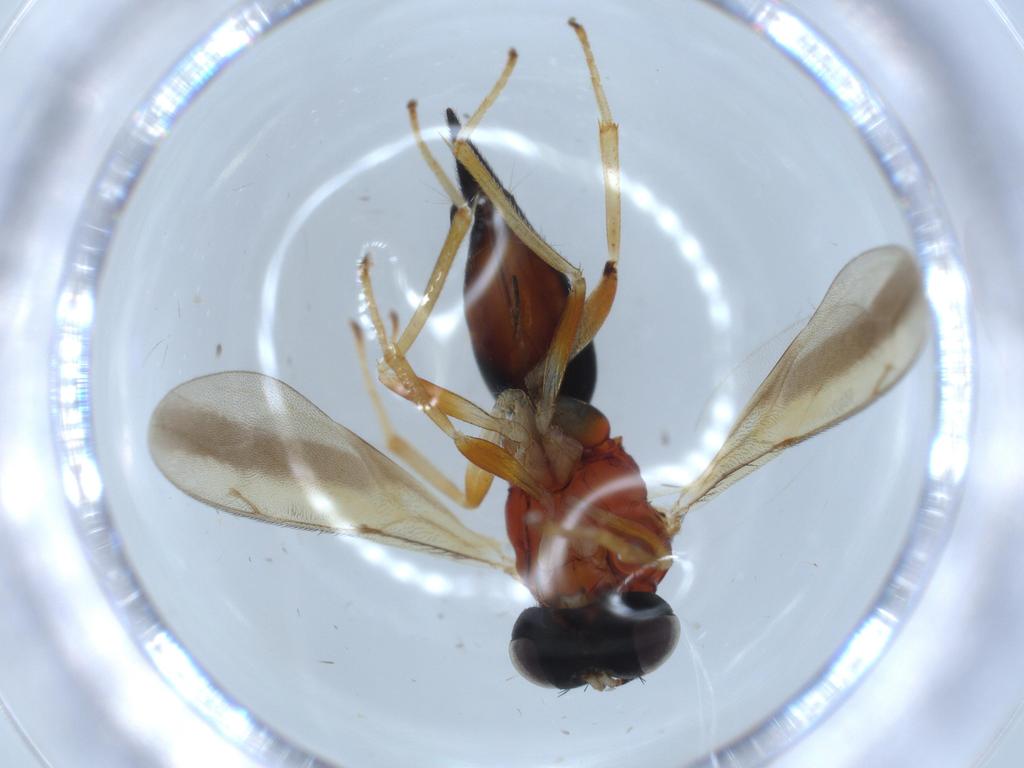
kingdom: Animalia
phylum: Arthropoda
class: Insecta
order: Hymenoptera
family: Diparidae
